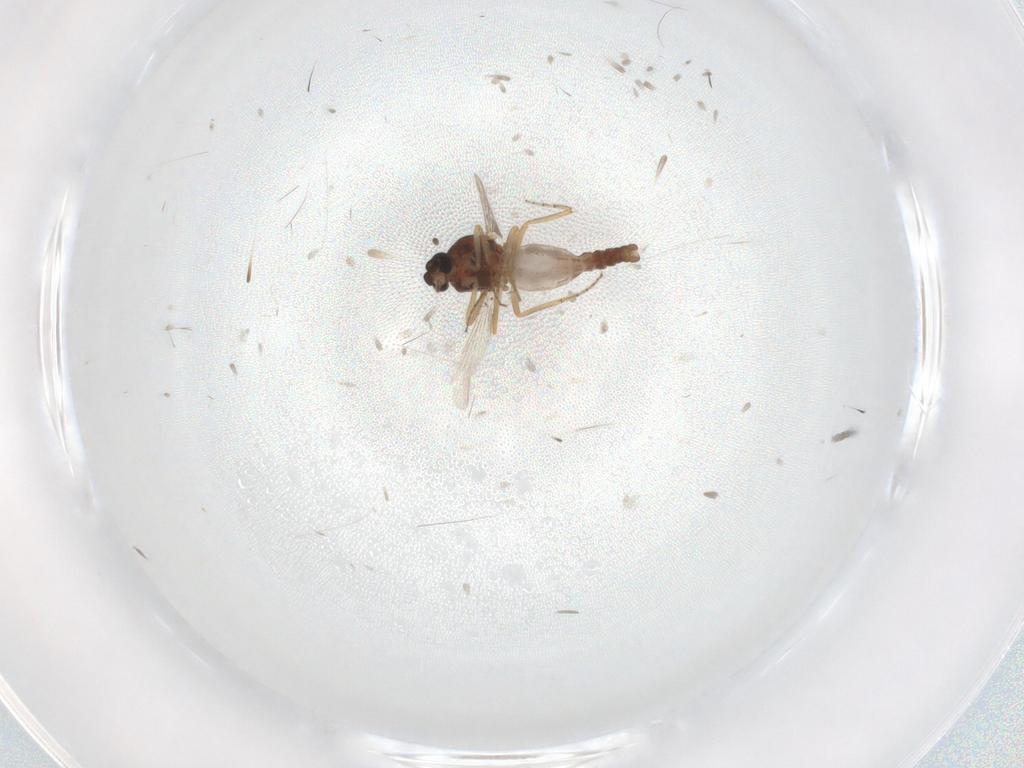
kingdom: Animalia
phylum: Arthropoda
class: Insecta
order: Diptera
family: Ceratopogonidae
